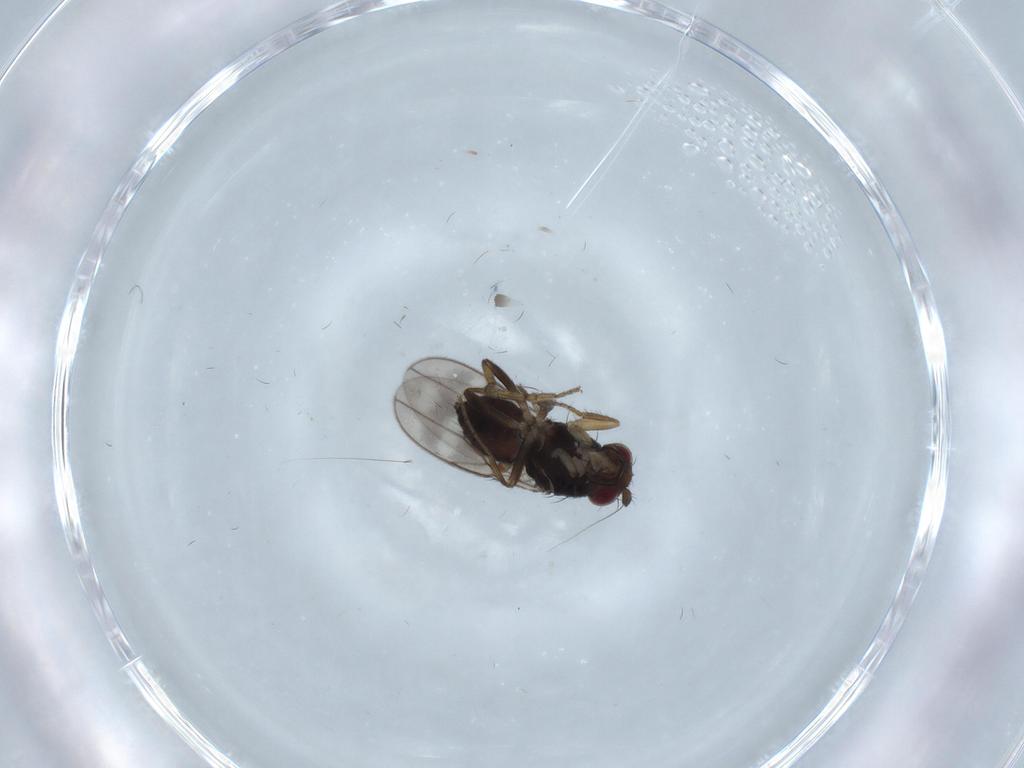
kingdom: Animalia
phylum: Arthropoda
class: Insecta
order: Diptera
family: Sphaeroceridae
